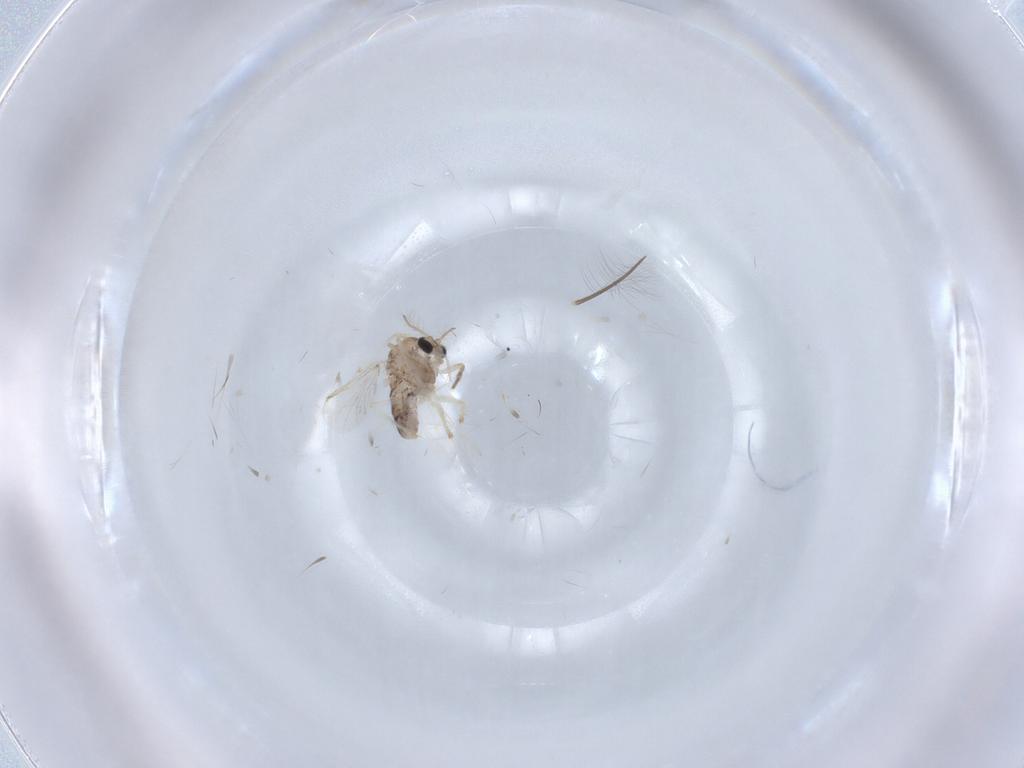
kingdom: Animalia
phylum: Arthropoda
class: Insecta
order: Diptera
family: Chironomidae
